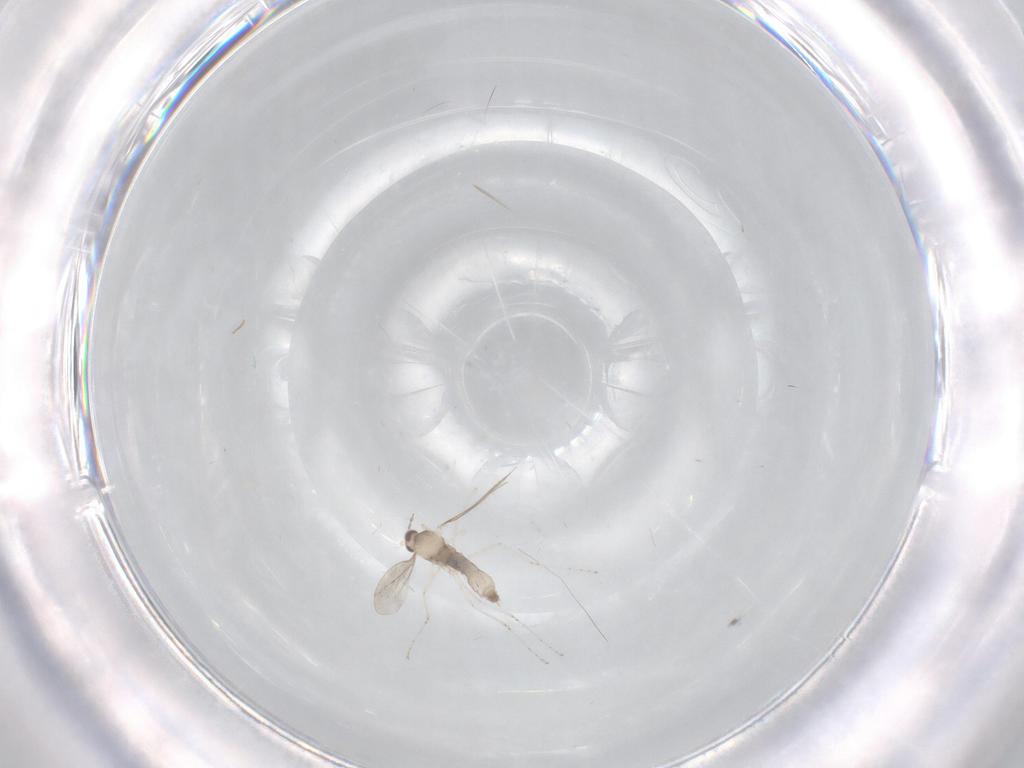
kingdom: Animalia
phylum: Arthropoda
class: Insecta
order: Diptera
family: Cecidomyiidae
